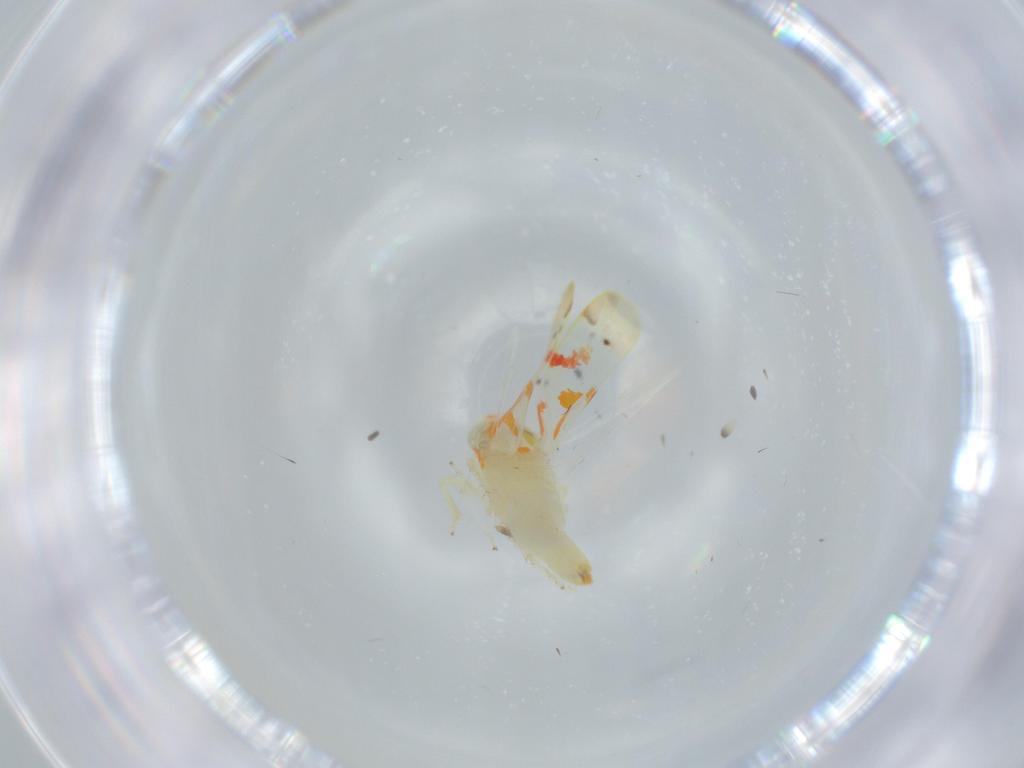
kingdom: Animalia
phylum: Arthropoda
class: Insecta
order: Hemiptera
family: Cicadellidae
